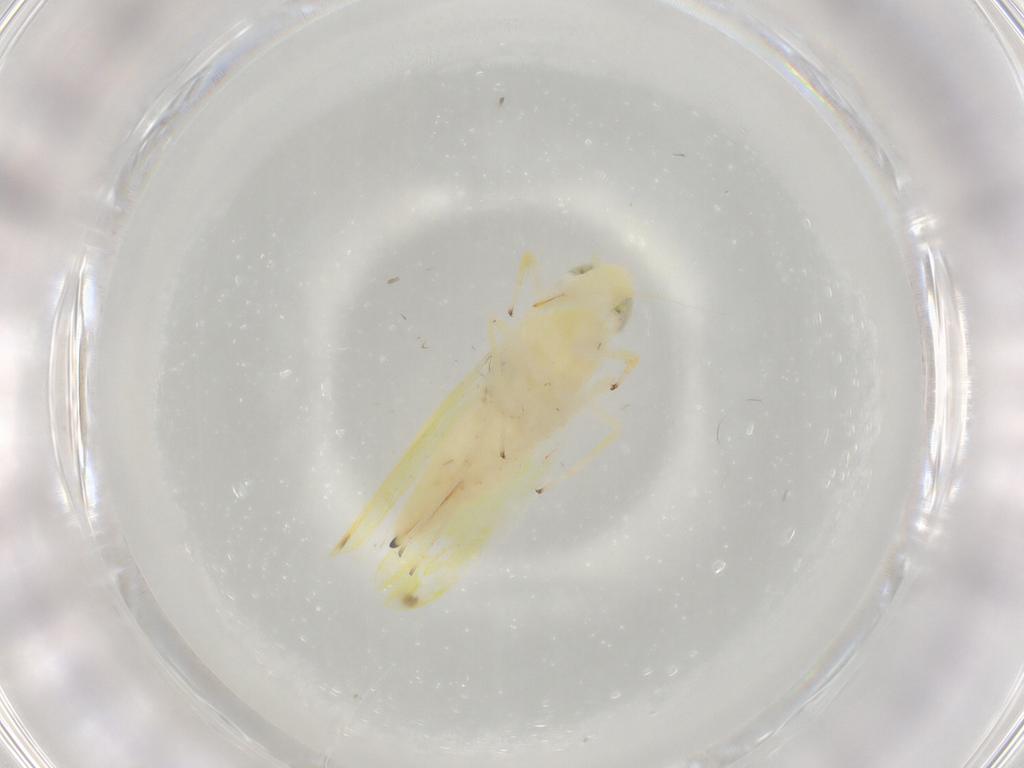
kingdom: Animalia
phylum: Arthropoda
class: Insecta
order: Hemiptera
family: Cicadellidae
